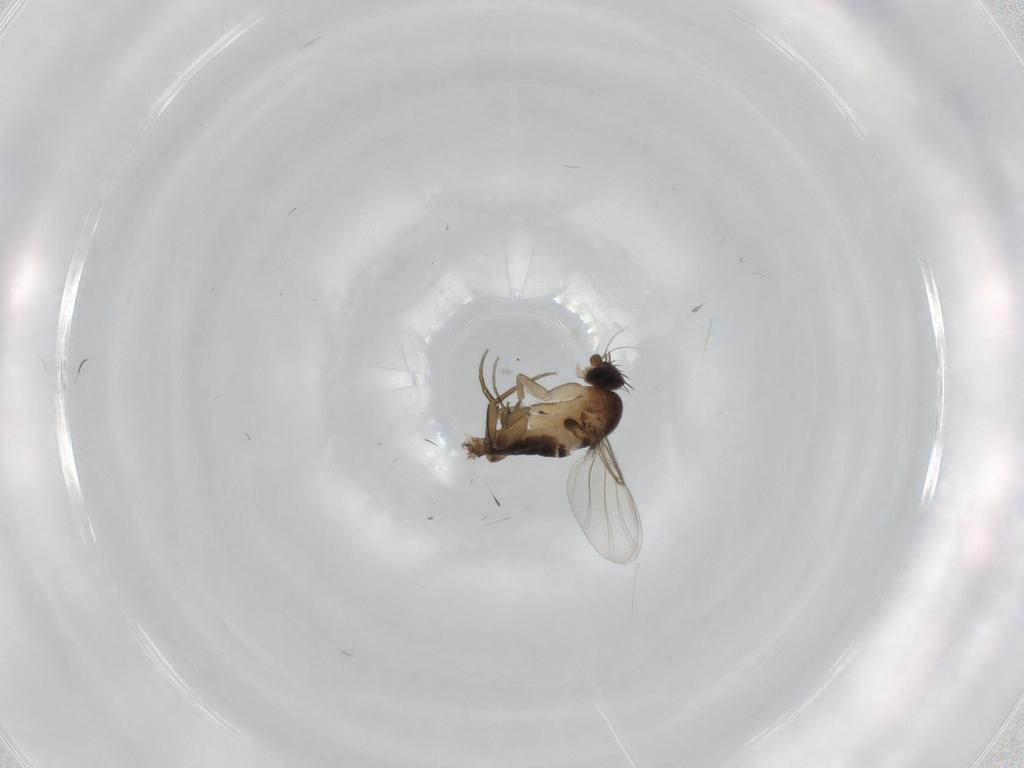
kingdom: Animalia
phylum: Arthropoda
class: Insecta
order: Diptera
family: Phoridae
